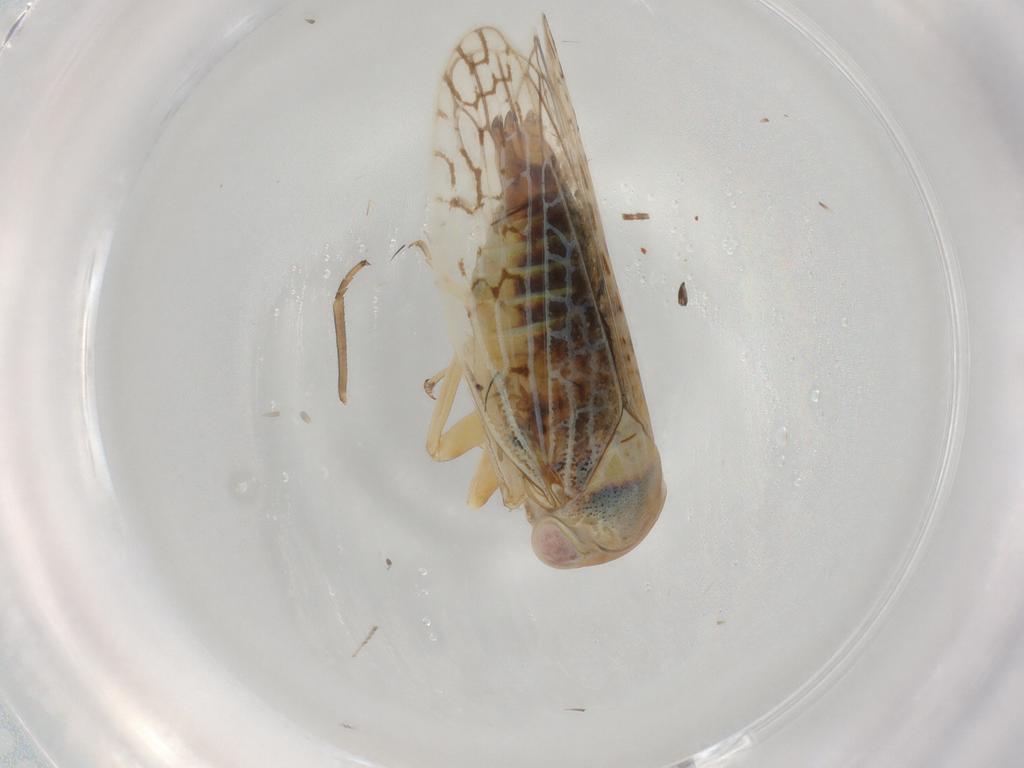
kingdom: Animalia
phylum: Arthropoda
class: Insecta
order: Hemiptera
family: Cicadellidae
